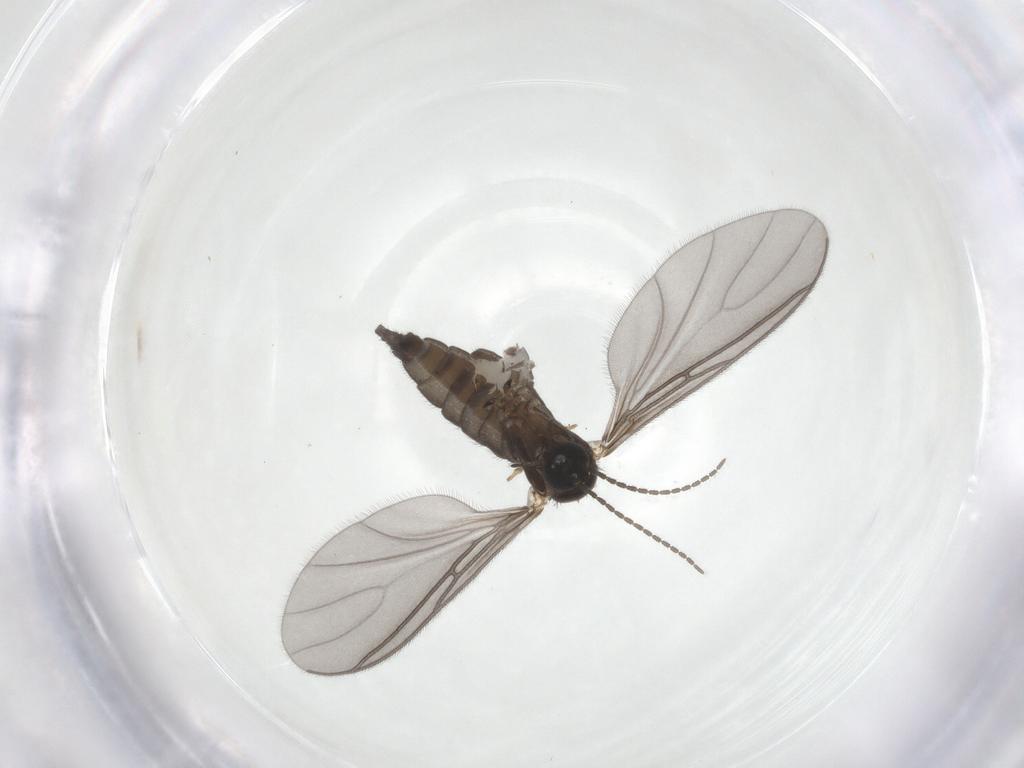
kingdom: Animalia
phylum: Arthropoda
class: Insecta
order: Diptera
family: Sciaridae
